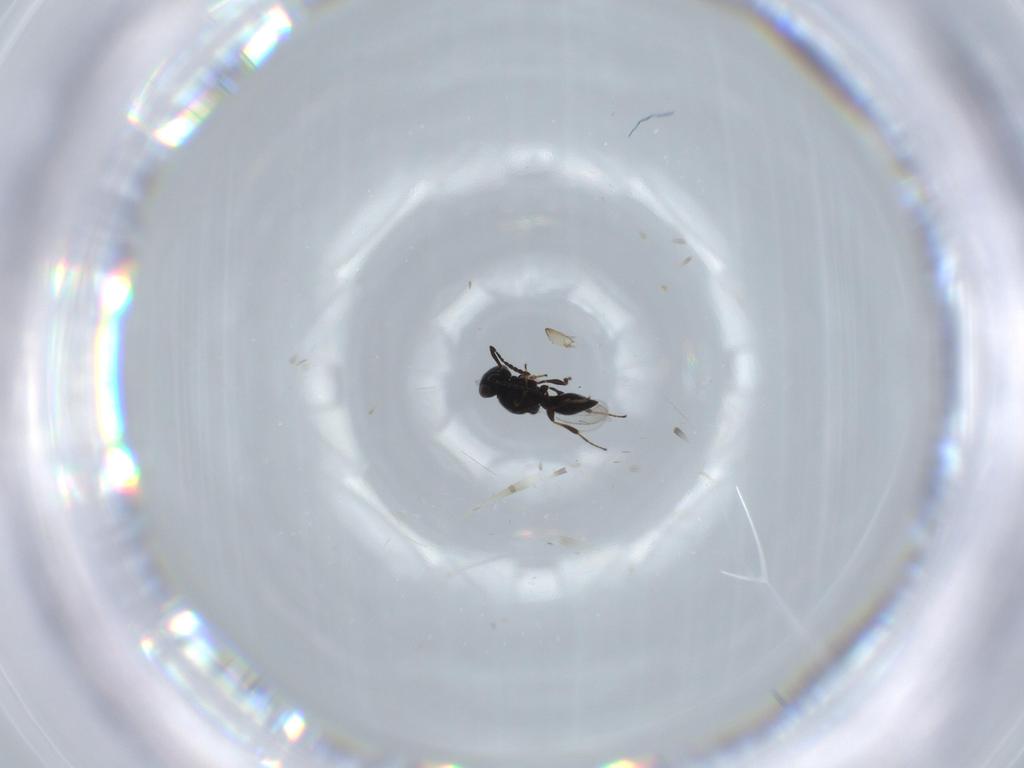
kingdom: Animalia
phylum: Arthropoda
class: Insecta
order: Hymenoptera
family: Platygastridae
